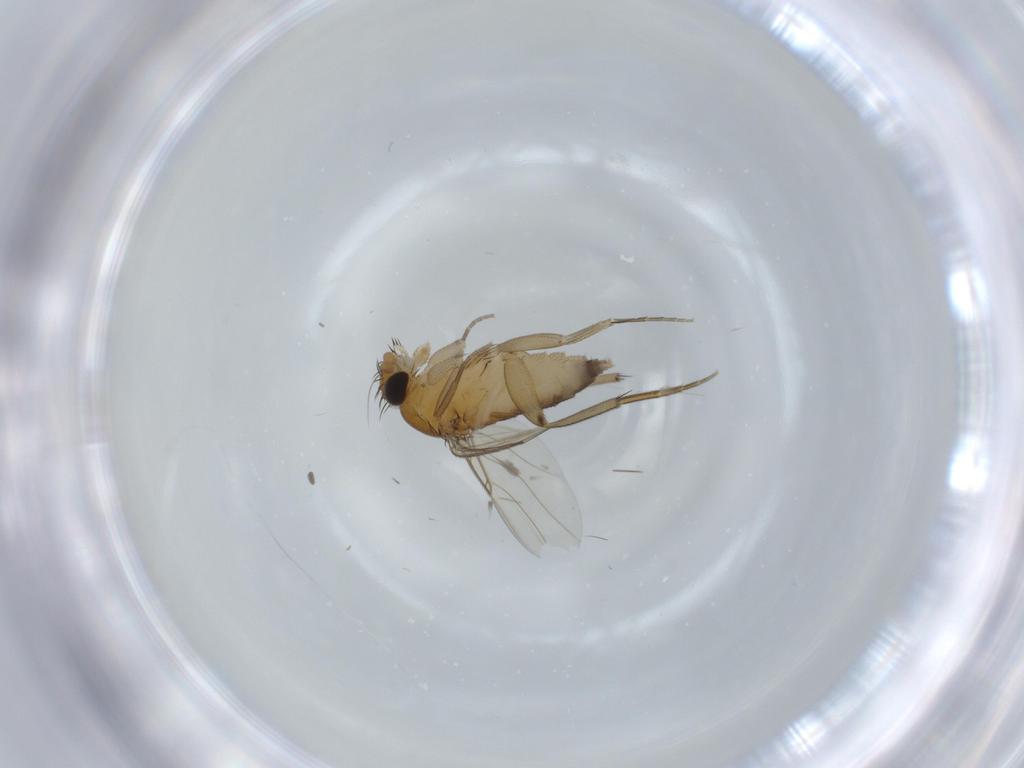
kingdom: Animalia
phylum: Arthropoda
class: Insecta
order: Diptera
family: Phoridae
